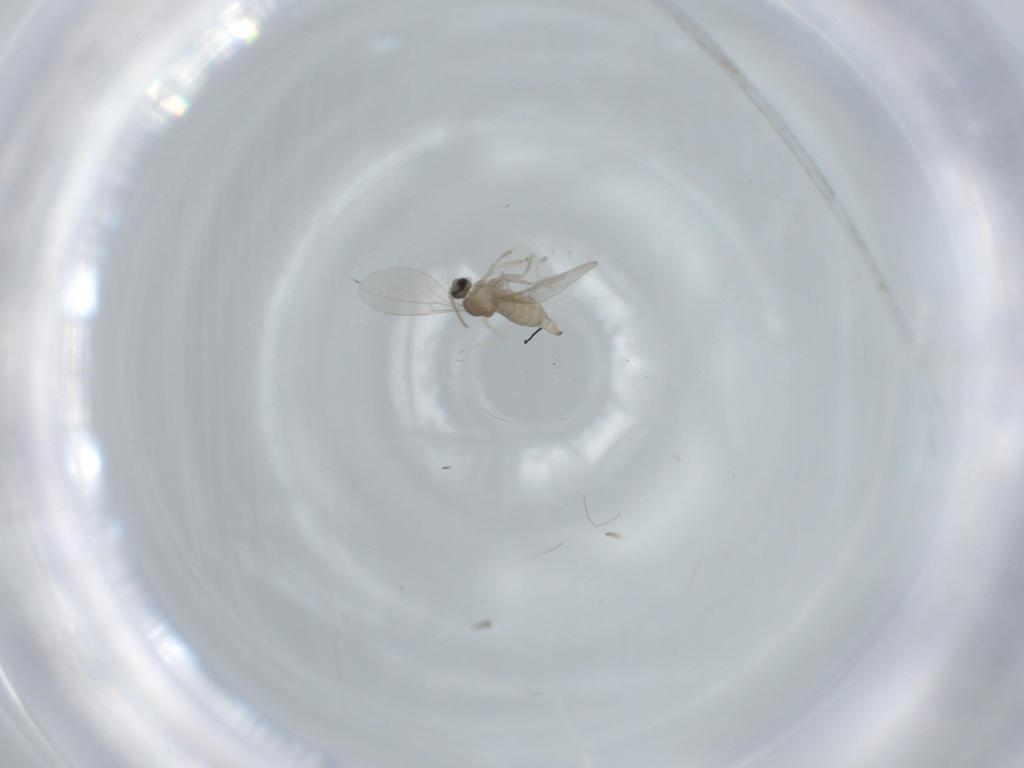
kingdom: Animalia
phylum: Arthropoda
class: Insecta
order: Diptera
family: Cecidomyiidae
